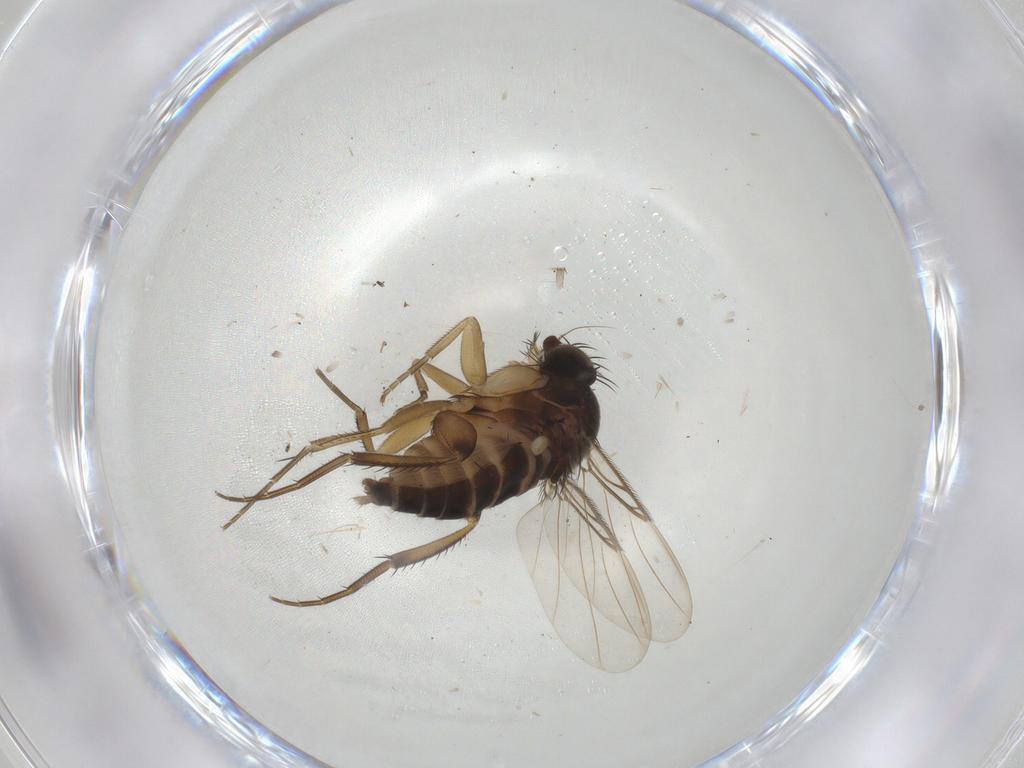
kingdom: Animalia
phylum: Arthropoda
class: Insecta
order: Diptera
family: Phoridae
